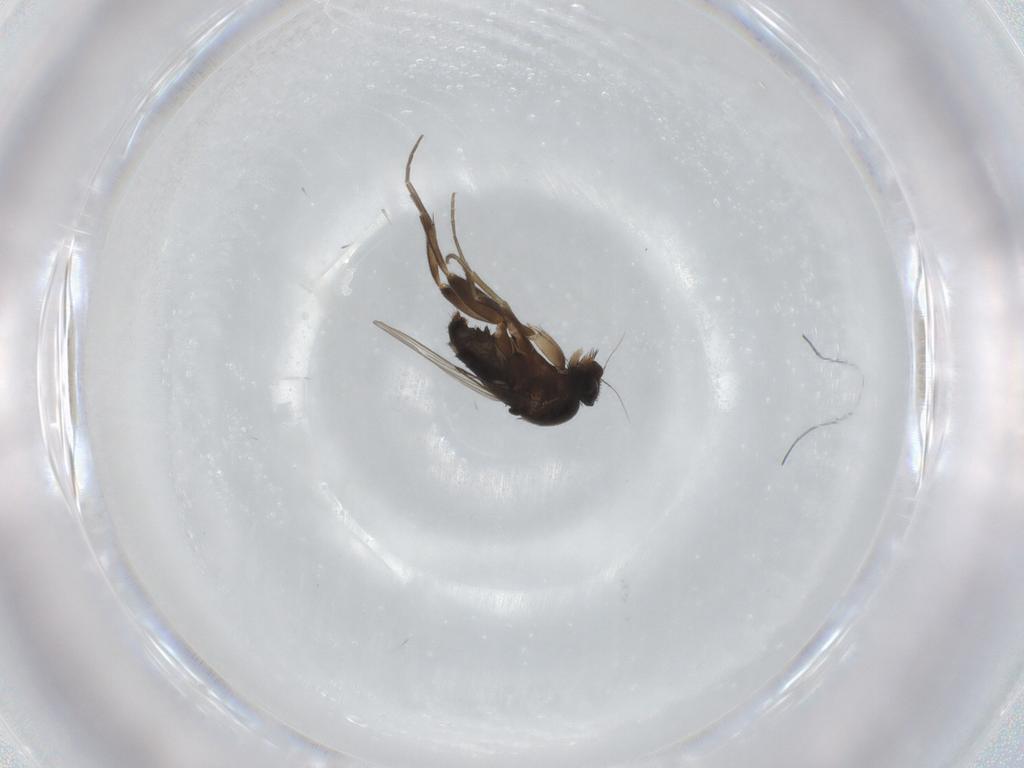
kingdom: Animalia
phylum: Arthropoda
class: Insecta
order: Diptera
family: Phoridae
